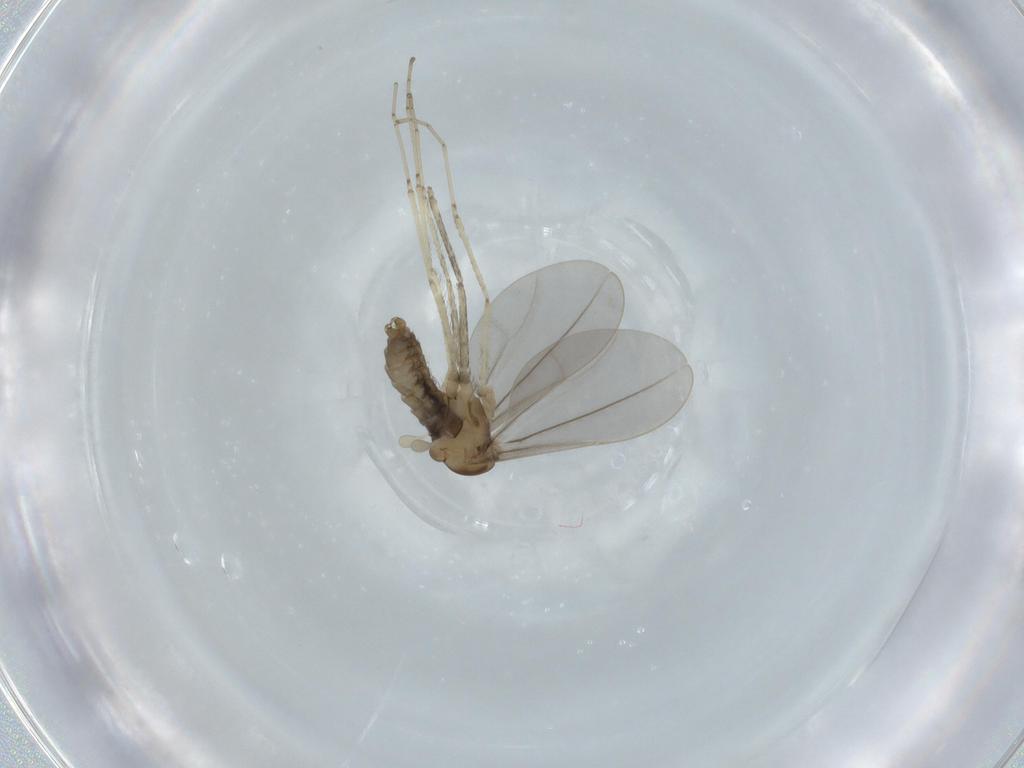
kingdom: Animalia
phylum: Arthropoda
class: Insecta
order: Diptera
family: Cecidomyiidae
